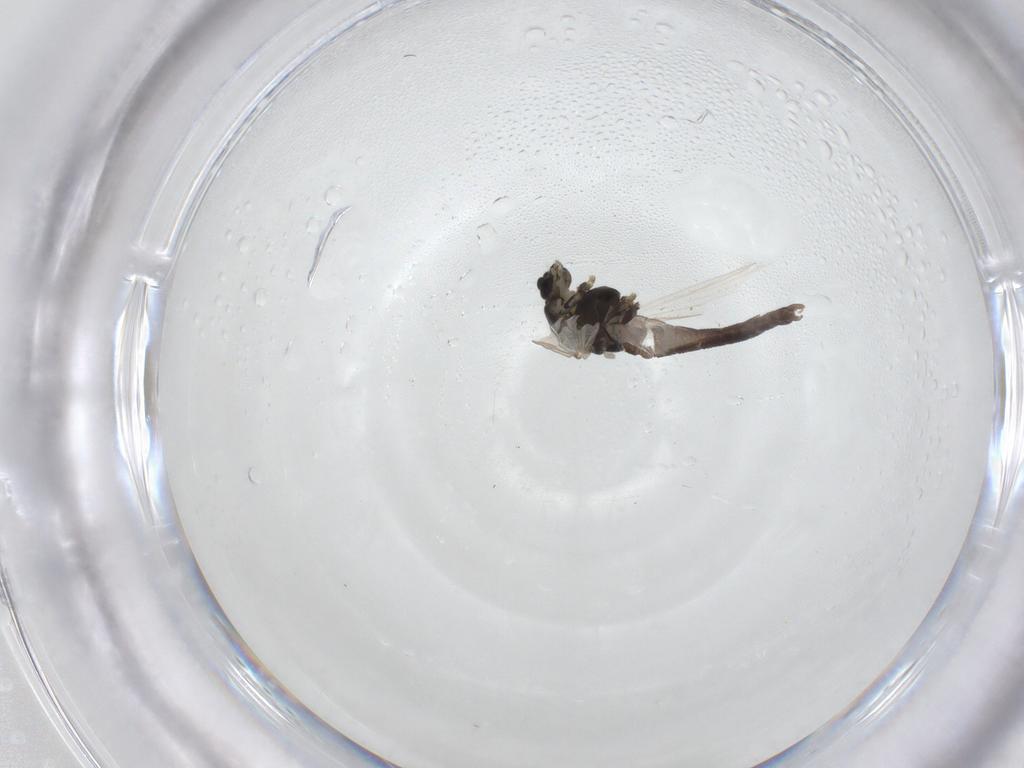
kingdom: Animalia
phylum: Arthropoda
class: Insecta
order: Diptera
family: Chironomidae
